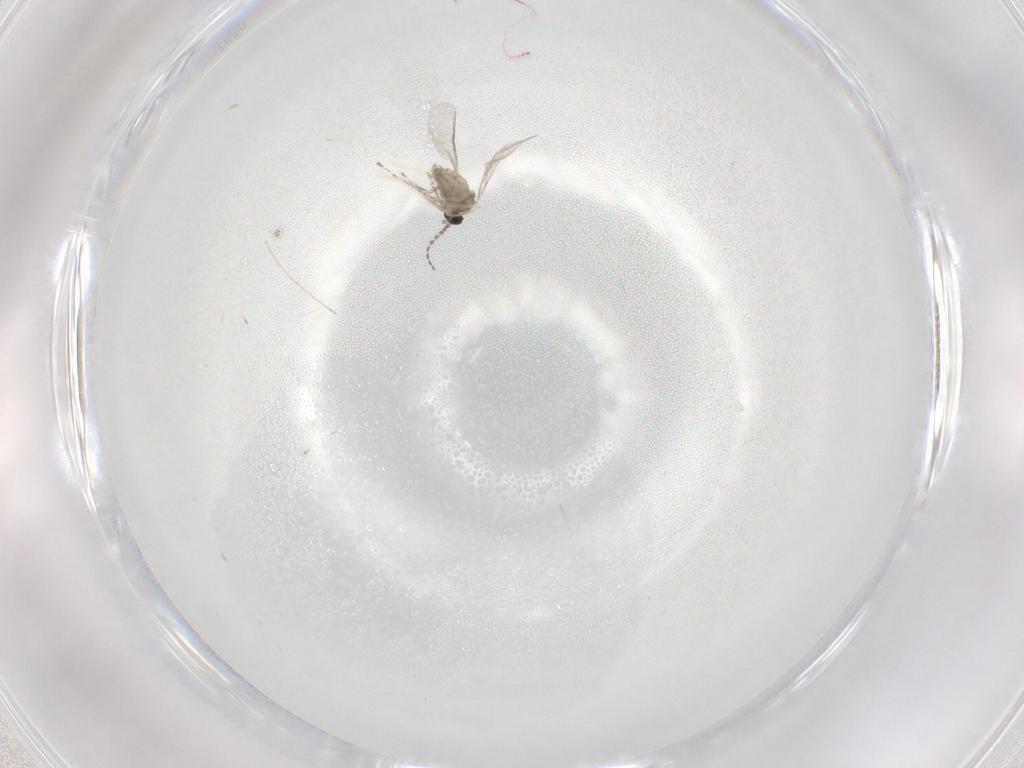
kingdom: Animalia
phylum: Arthropoda
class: Insecta
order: Diptera
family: Cecidomyiidae
